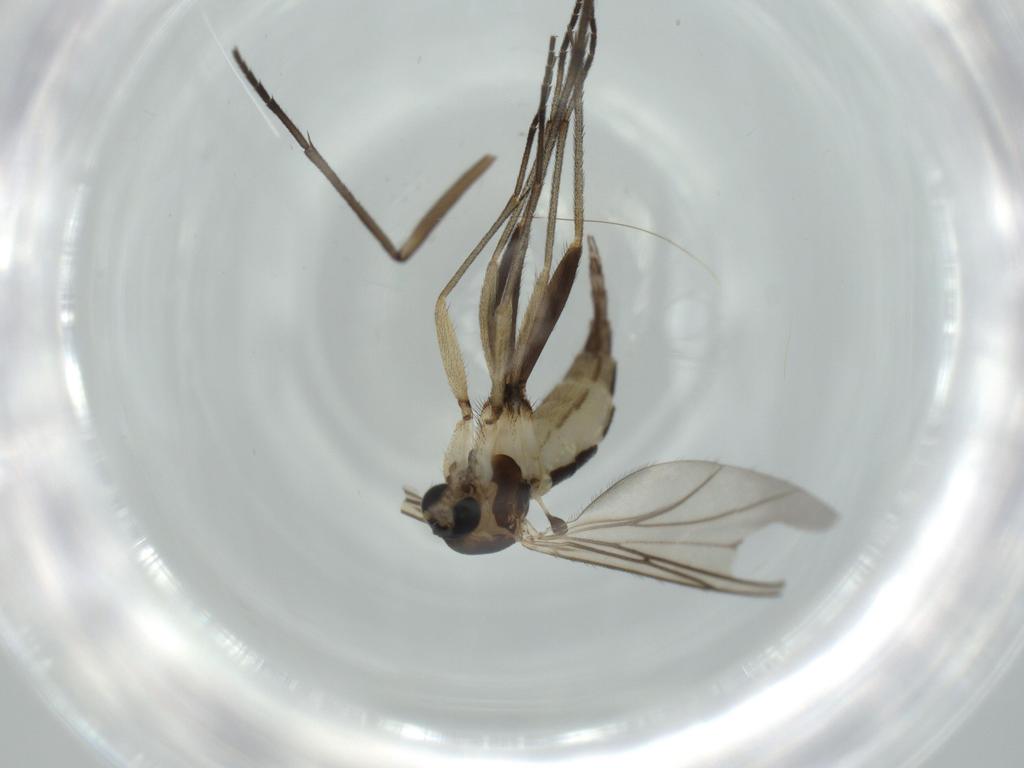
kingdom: Animalia
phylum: Arthropoda
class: Insecta
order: Diptera
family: Sciaridae
